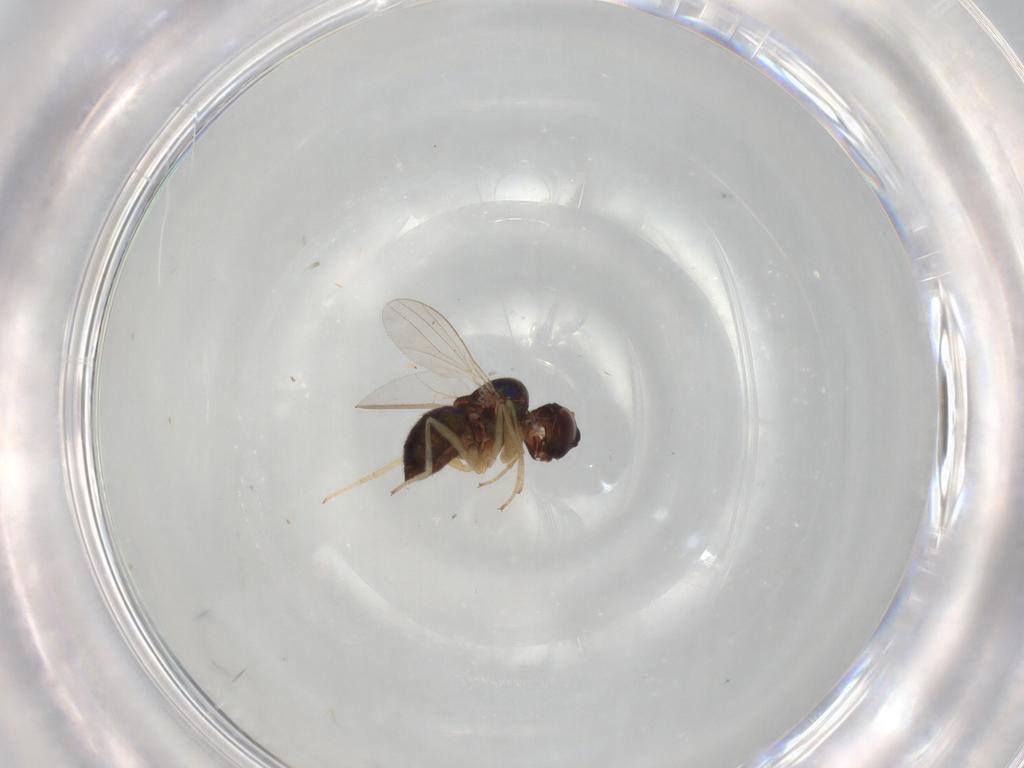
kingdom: Animalia
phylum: Arthropoda
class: Insecta
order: Diptera
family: Dolichopodidae
